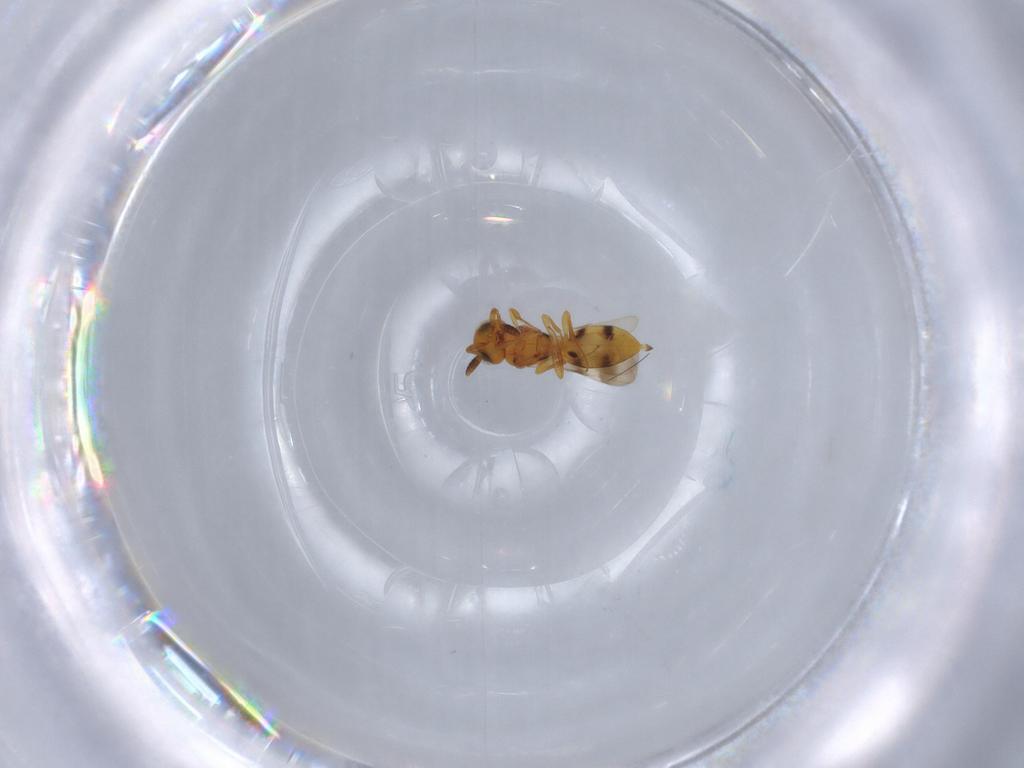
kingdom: Animalia
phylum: Arthropoda
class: Insecta
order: Hymenoptera
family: Scelionidae
